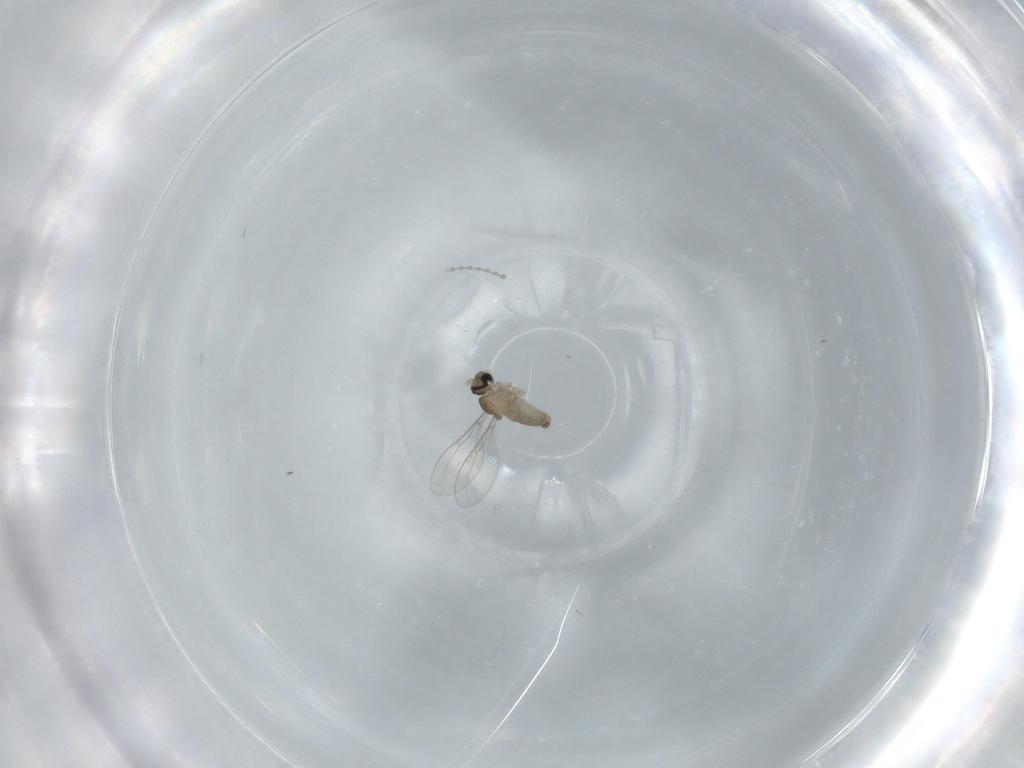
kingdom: Animalia
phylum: Arthropoda
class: Insecta
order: Diptera
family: Cecidomyiidae
